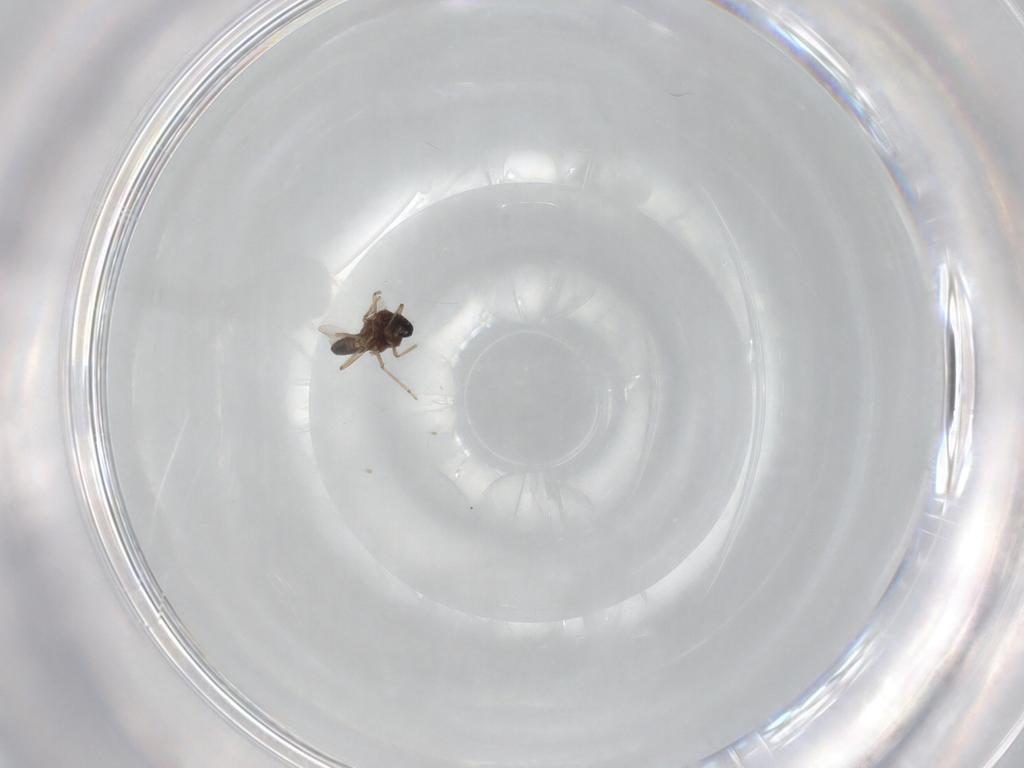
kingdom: Animalia
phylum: Arthropoda
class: Insecta
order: Diptera
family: Ceratopogonidae
